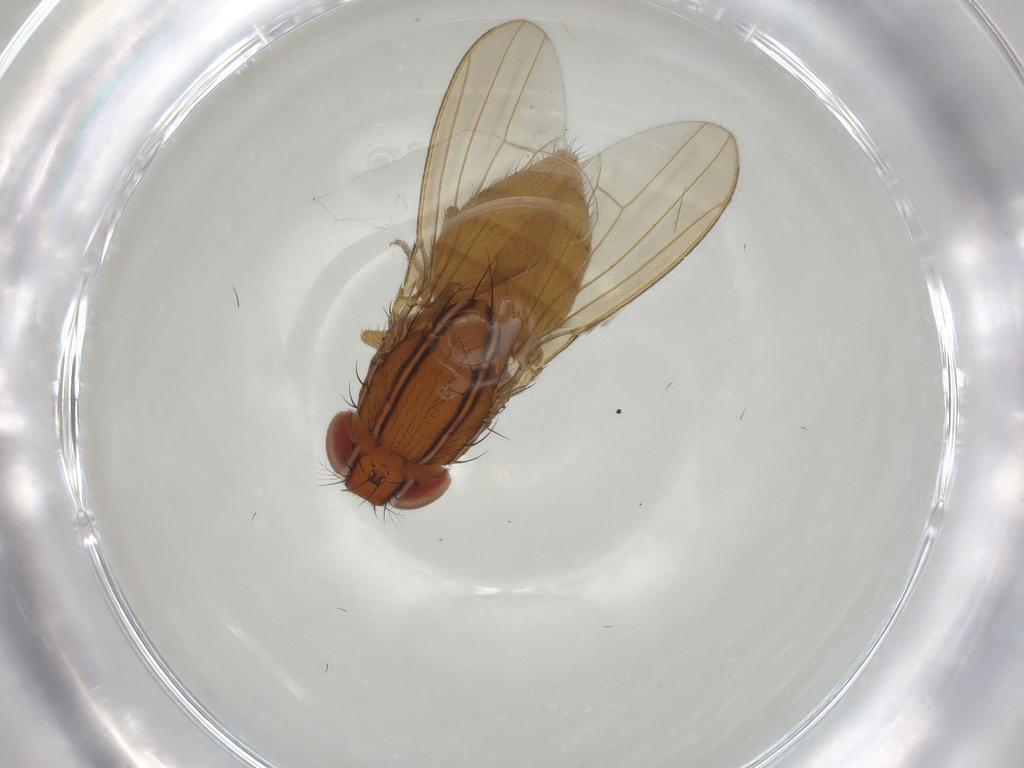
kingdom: Animalia
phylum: Arthropoda
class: Insecta
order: Diptera
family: Drosophilidae
